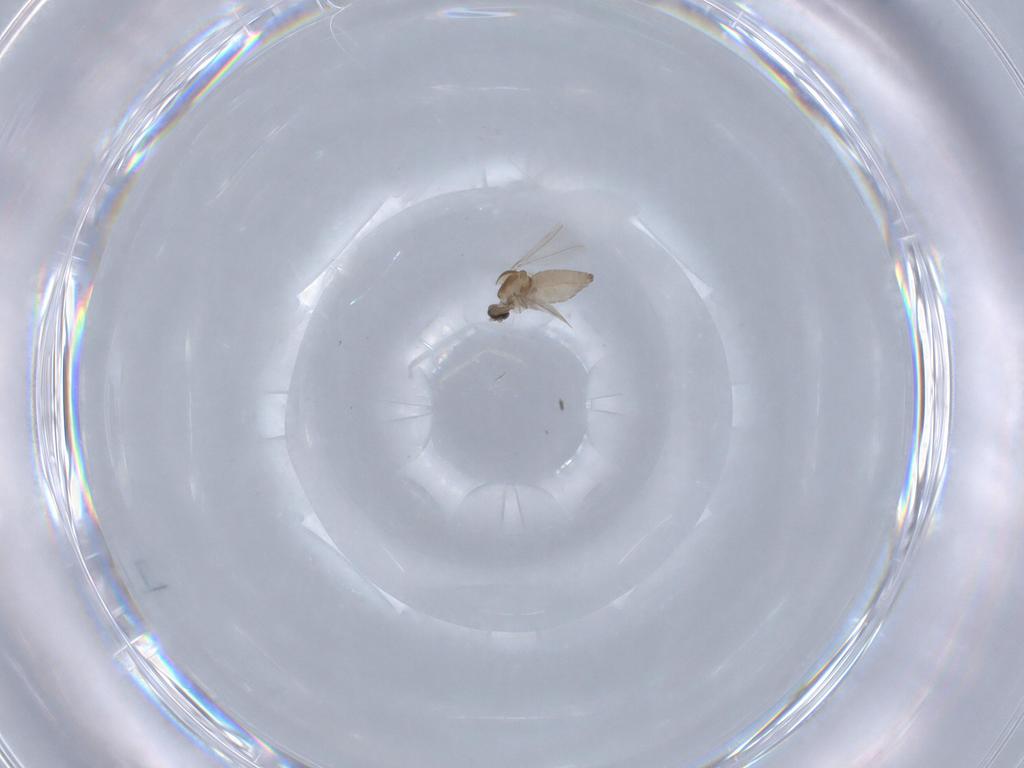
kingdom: Animalia
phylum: Arthropoda
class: Insecta
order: Diptera
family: Cecidomyiidae
